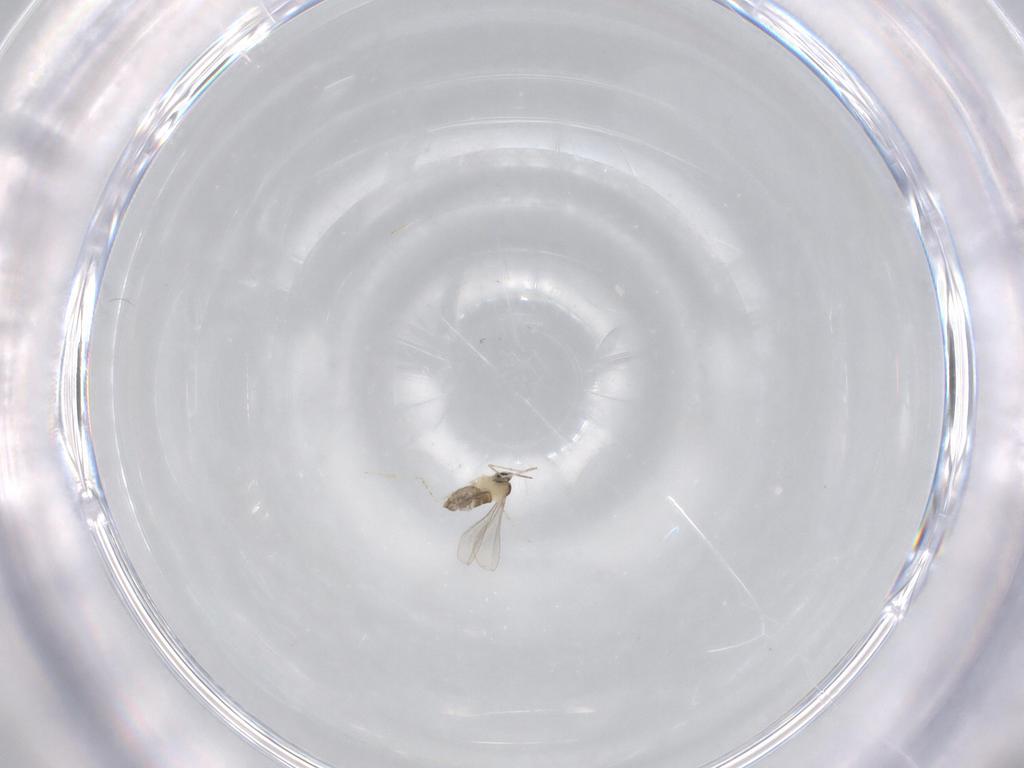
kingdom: Animalia
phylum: Arthropoda
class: Insecta
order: Diptera
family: Cecidomyiidae
